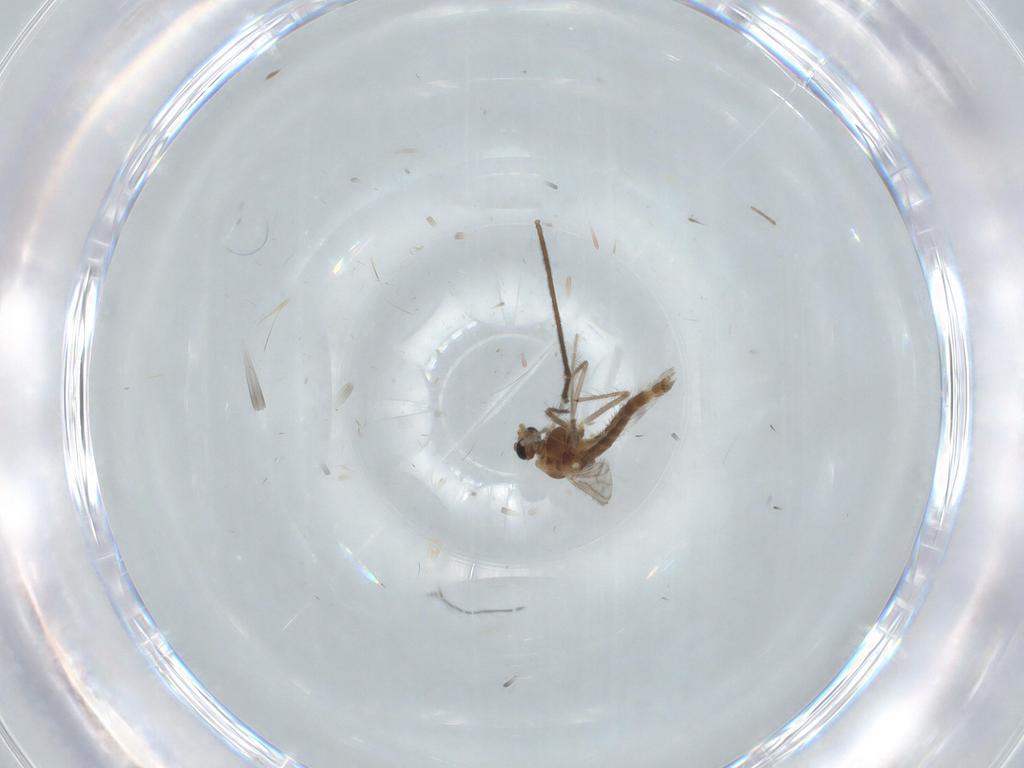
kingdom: Animalia
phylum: Arthropoda
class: Insecta
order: Diptera
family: Chironomidae
